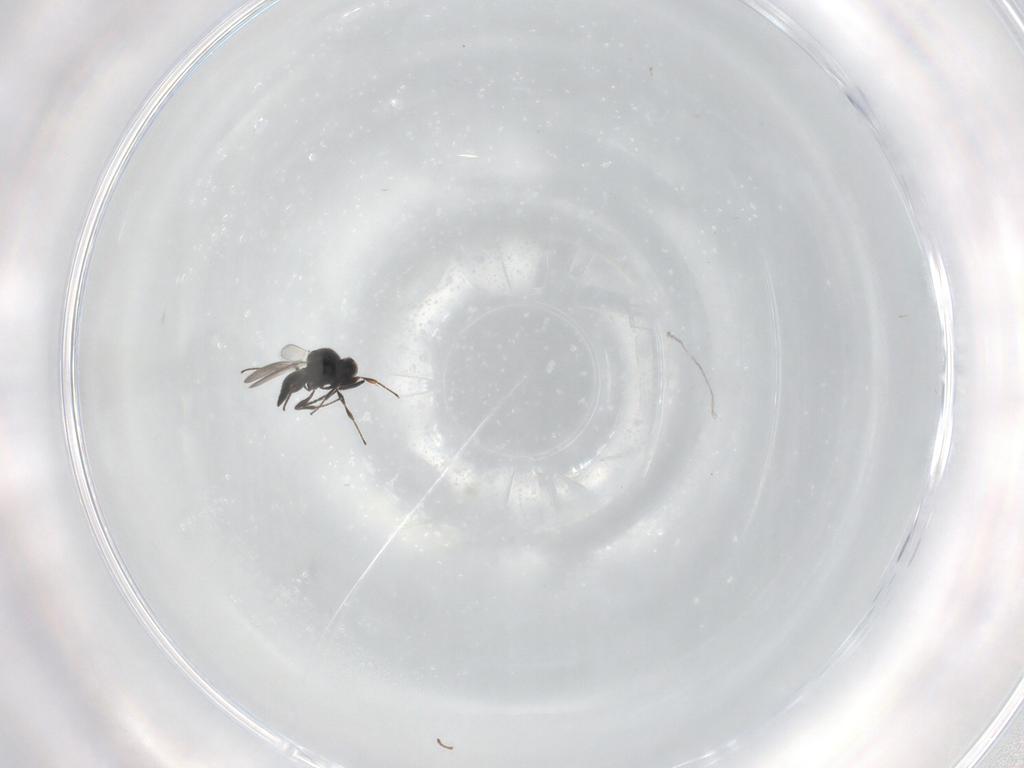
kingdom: Animalia
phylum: Arthropoda
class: Insecta
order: Hymenoptera
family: Platygastridae
